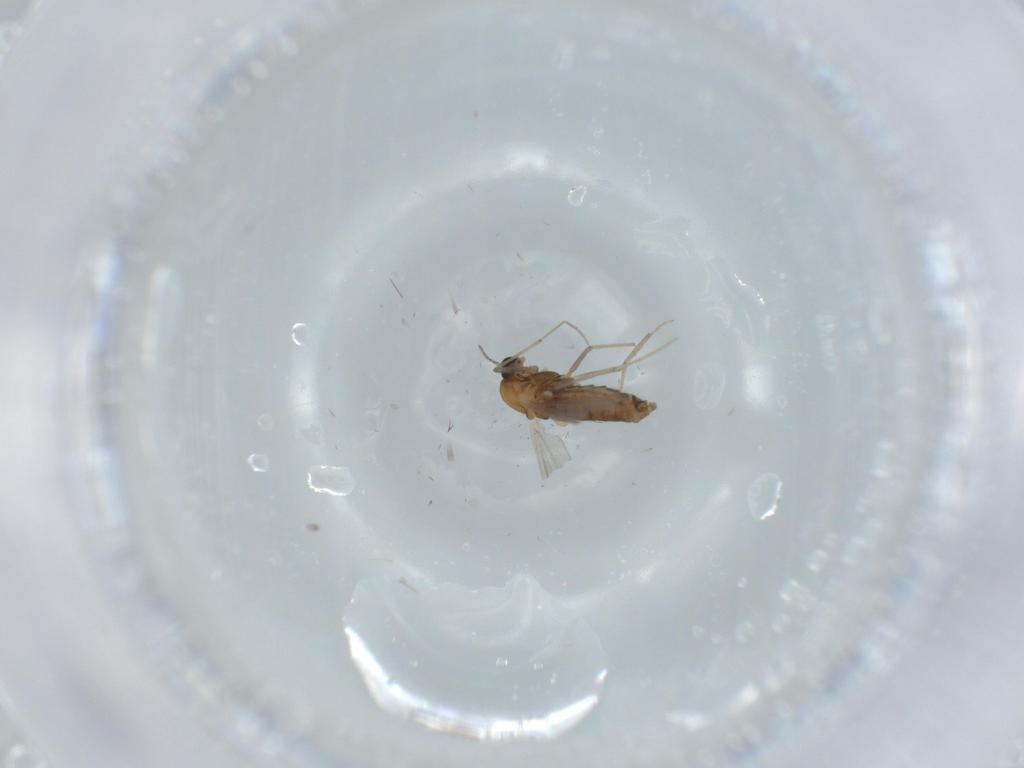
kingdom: Animalia
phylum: Arthropoda
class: Insecta
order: Diptera
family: Chironomidae
